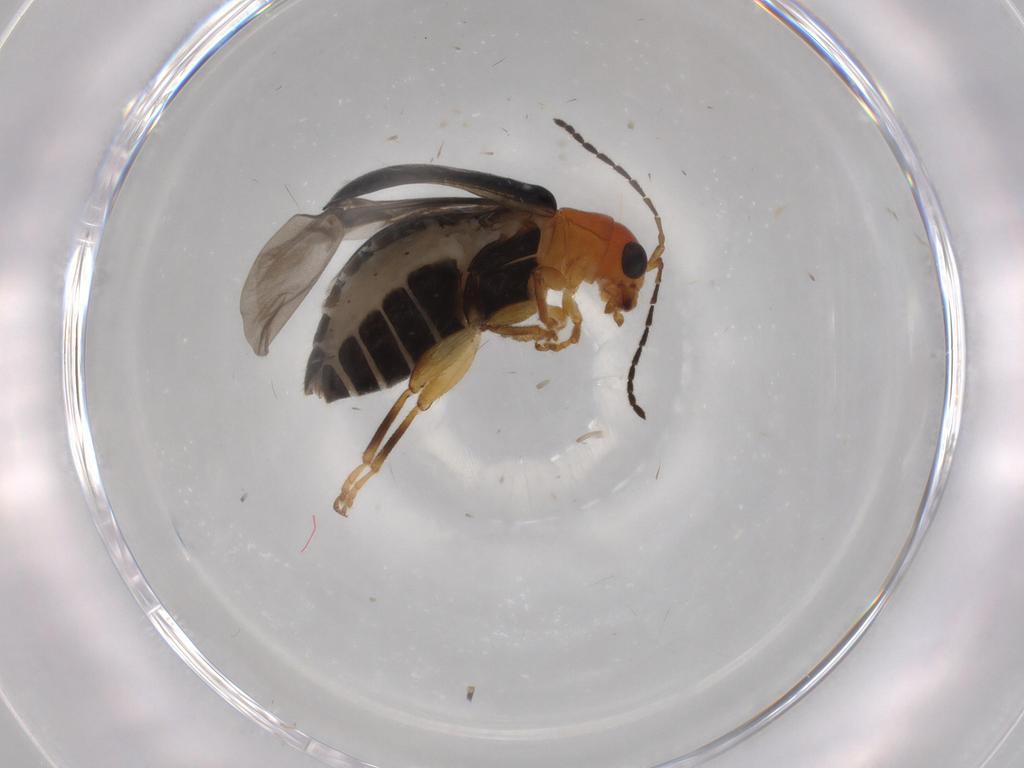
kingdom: Animalia
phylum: Arthropoda
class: Insecta
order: Coleoptera
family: Chrysomelidae
